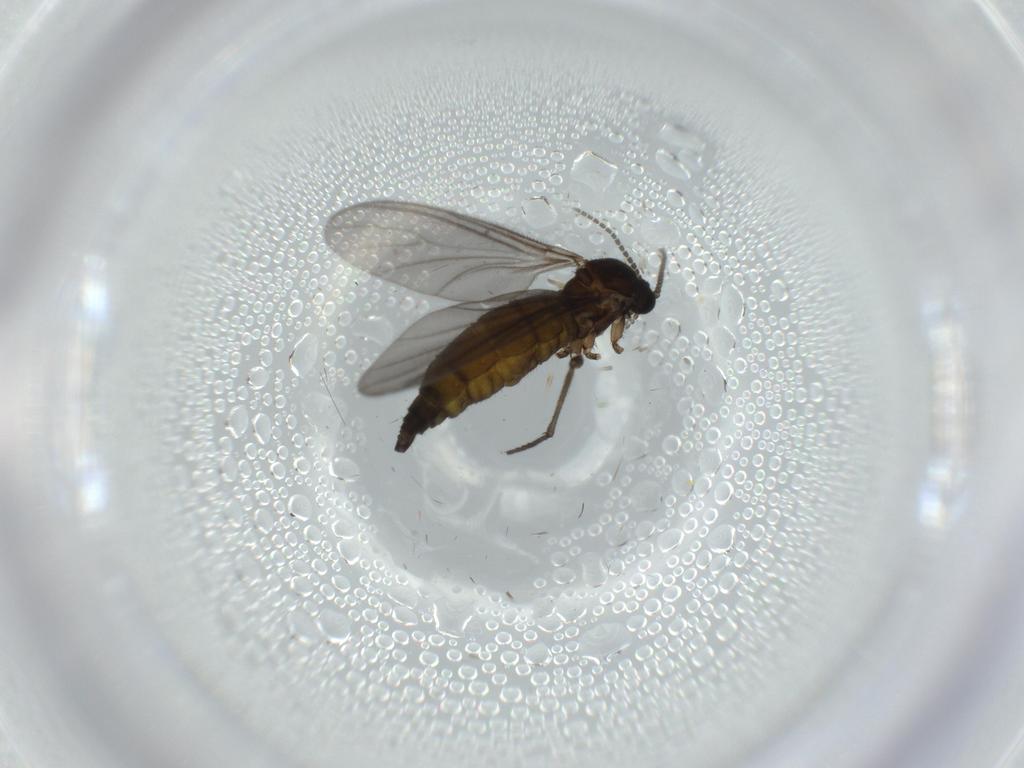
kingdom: Animalia
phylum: Arthropoda
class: Insecta
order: Diptera
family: Sciaridae
